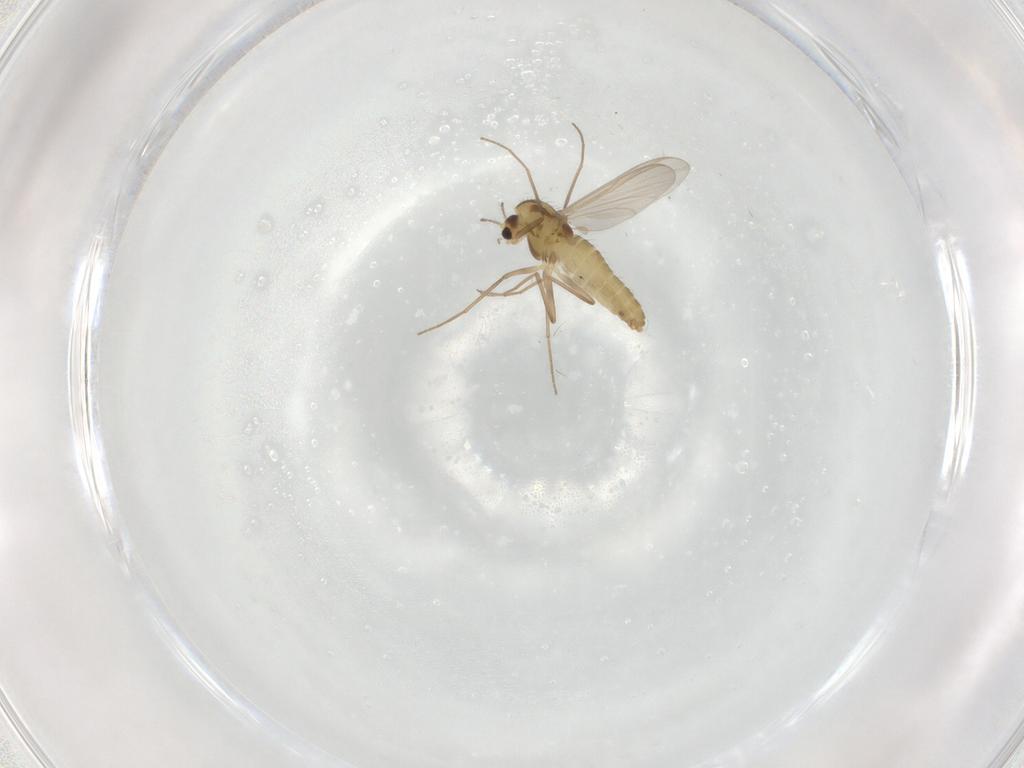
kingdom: Animalia
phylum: Arthropoda
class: Insecta
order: Diptera
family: Chironomidae
